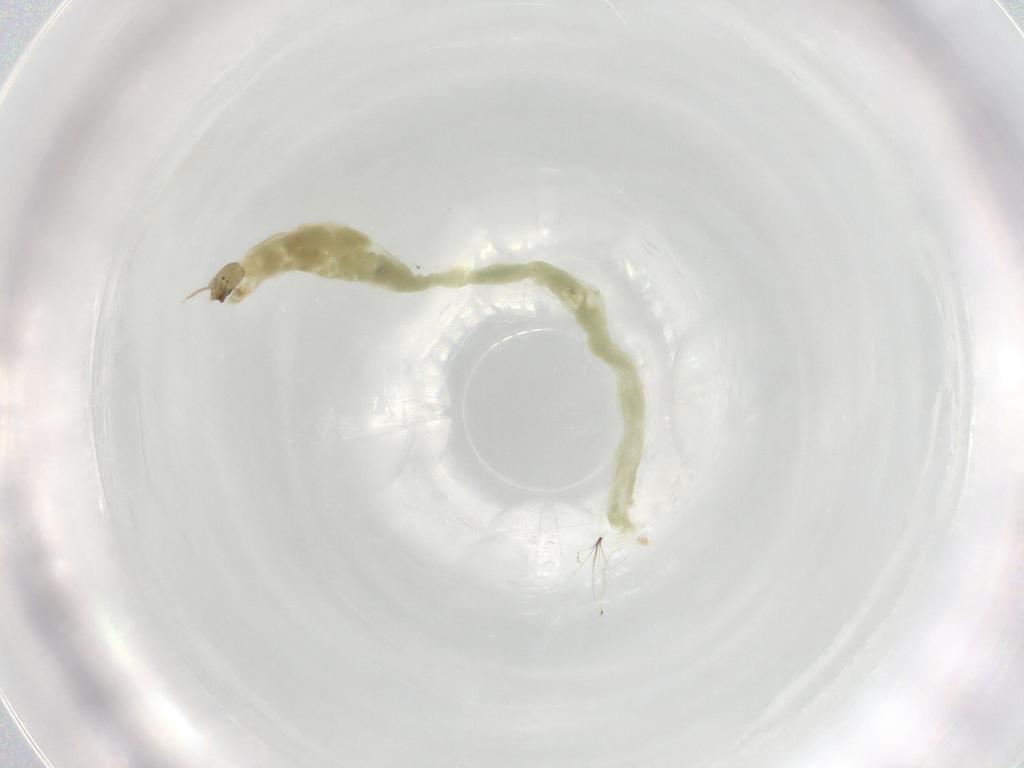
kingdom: Animalia
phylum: Arthropoda
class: Insecta
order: Diptera
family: Chironomidae
